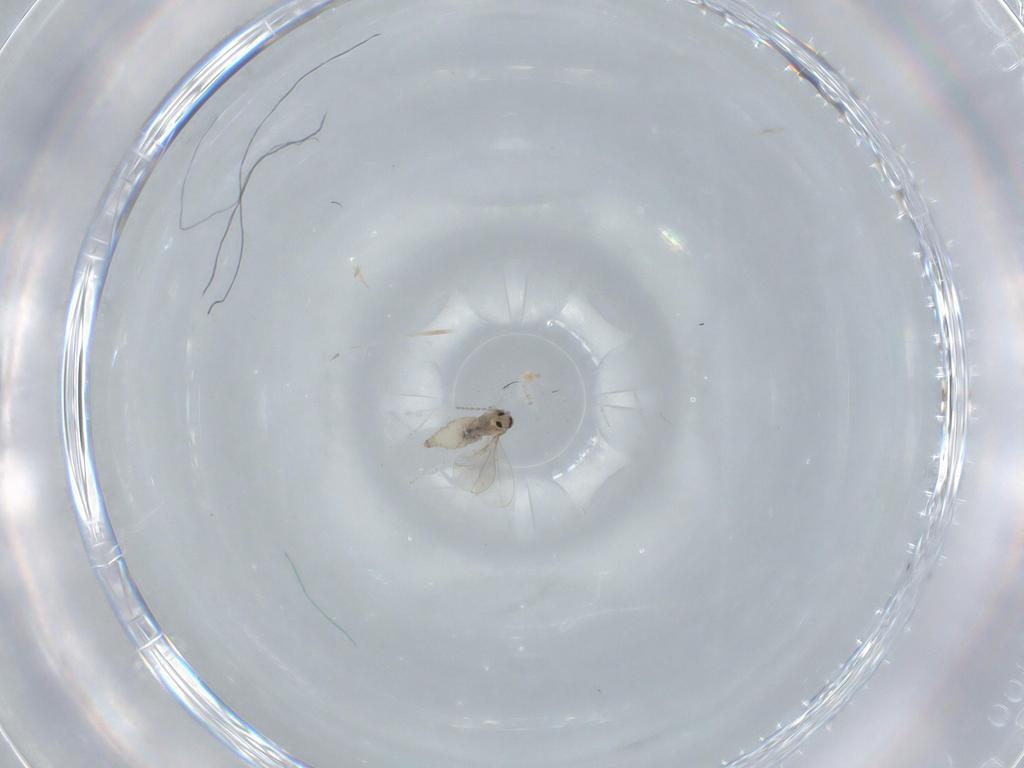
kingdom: Animalia
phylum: Arthropoda
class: Insecta
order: Diptera
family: Cecidomyiidae
